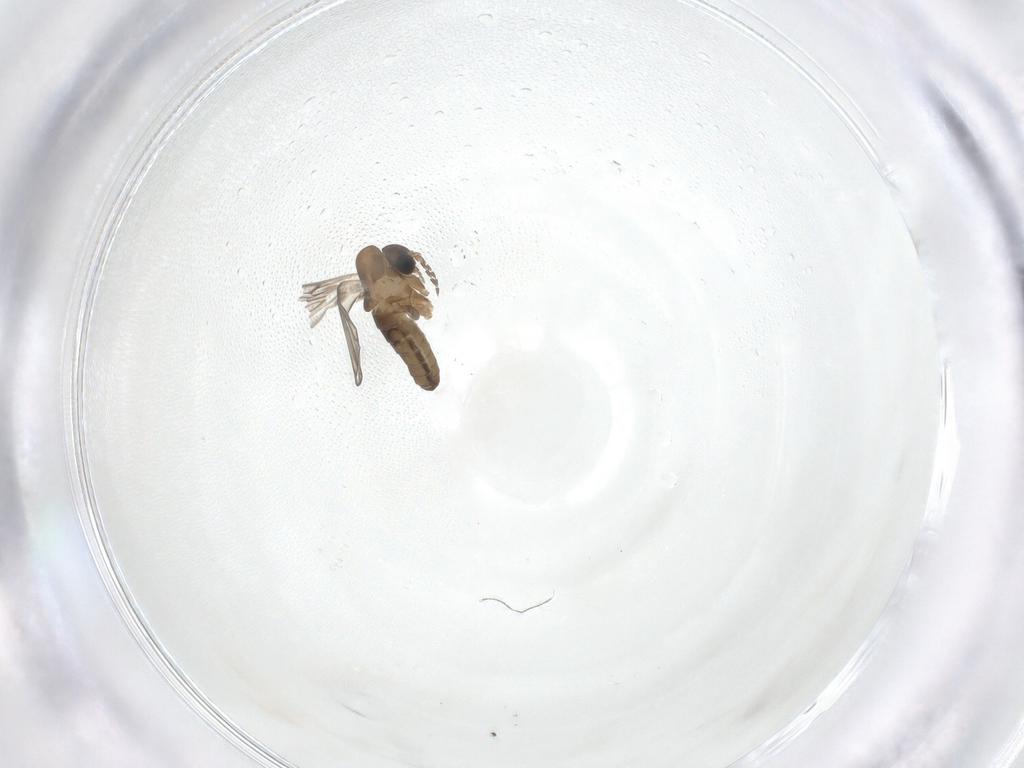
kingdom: Animalia
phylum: Arthropoda
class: Insecta
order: Diptera
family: Psychodidae
